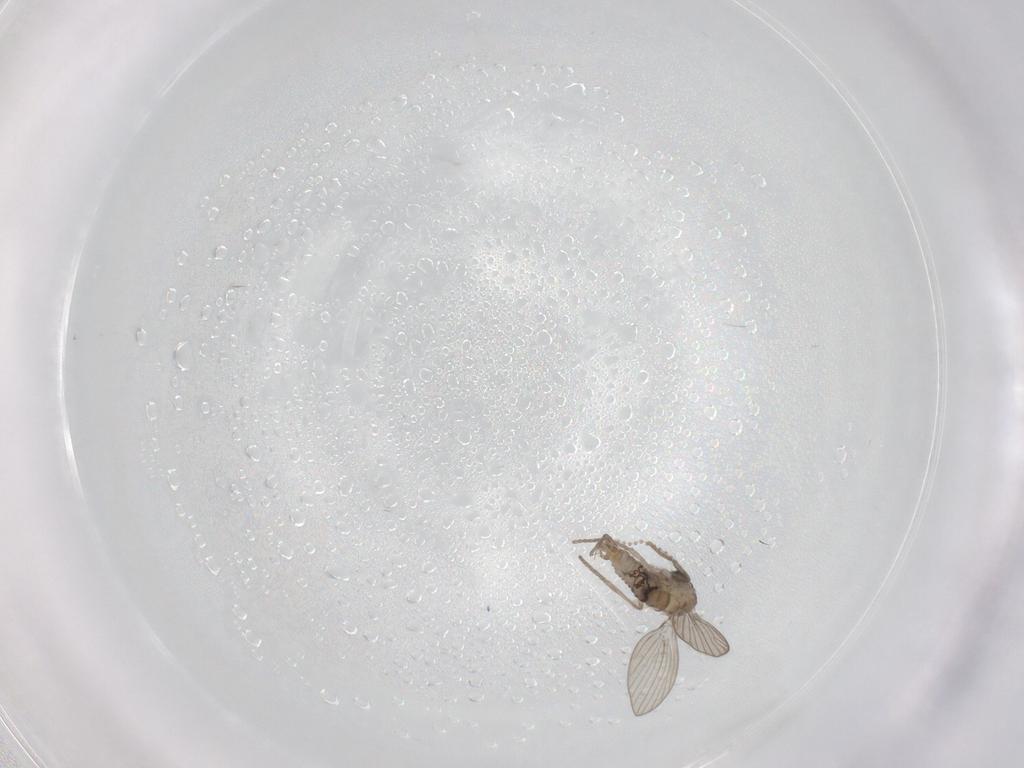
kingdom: Animalia
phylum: Arthropoda
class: Insecta
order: Diptera
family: Psychodidae
